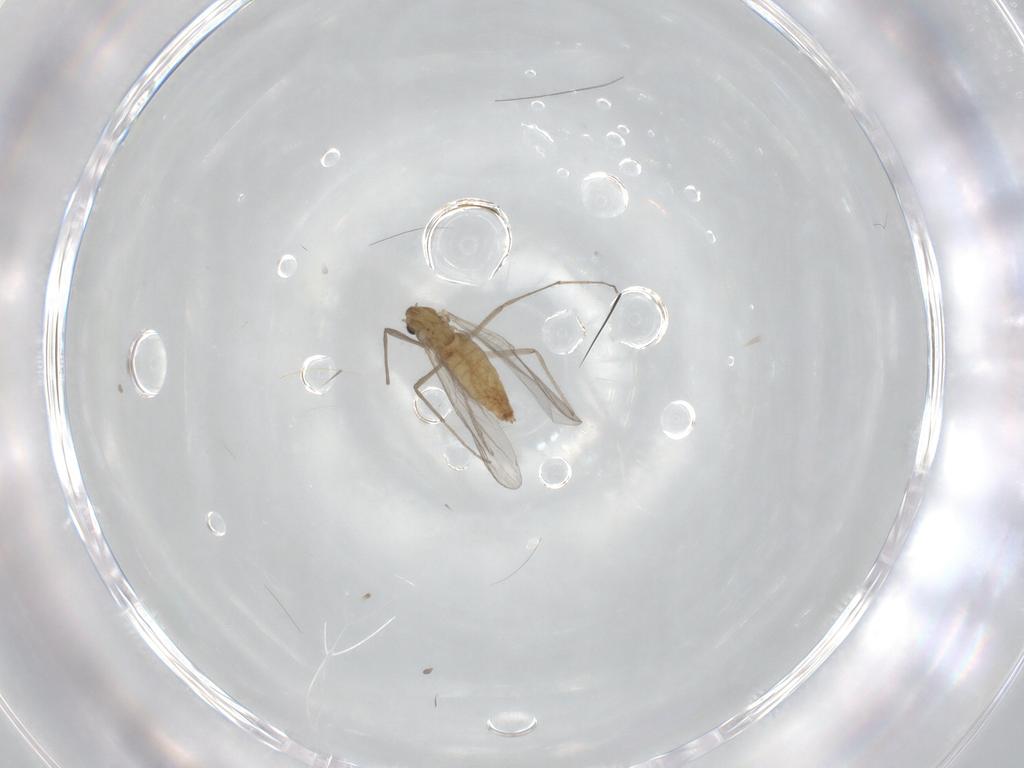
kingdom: Animalia
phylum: Arthropoda
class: Insecta
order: Diptera
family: Chironomidae
